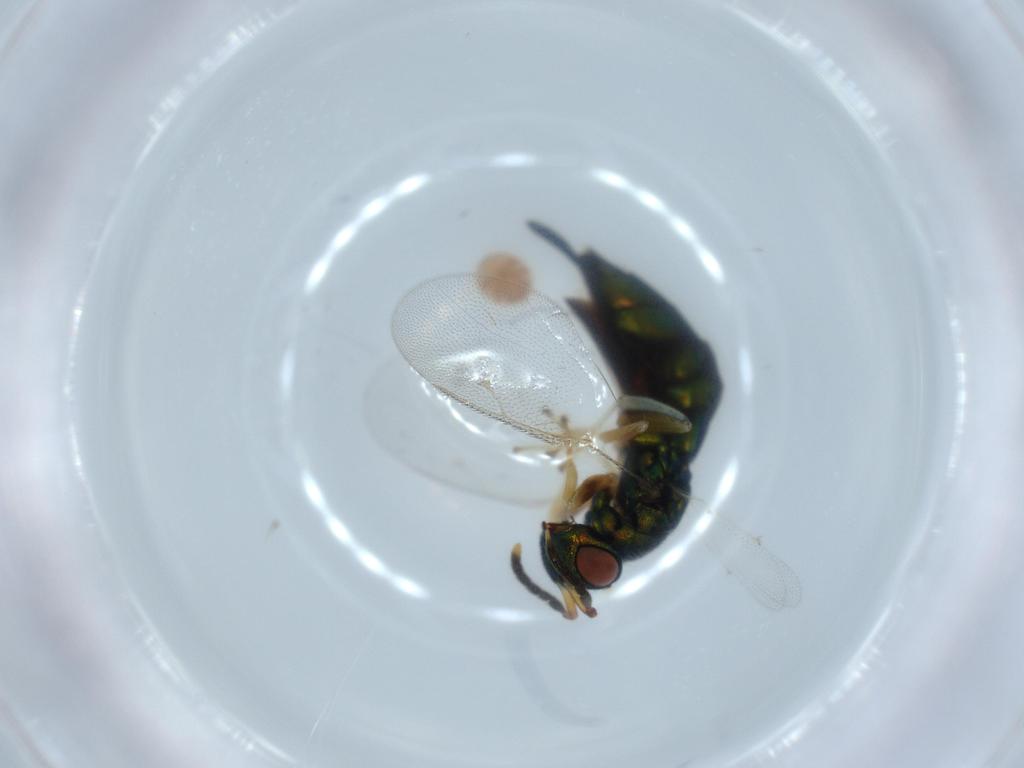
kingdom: Animalia
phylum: Arthropoda
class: Insecta
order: Hymenoptera
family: Pteromalidae
